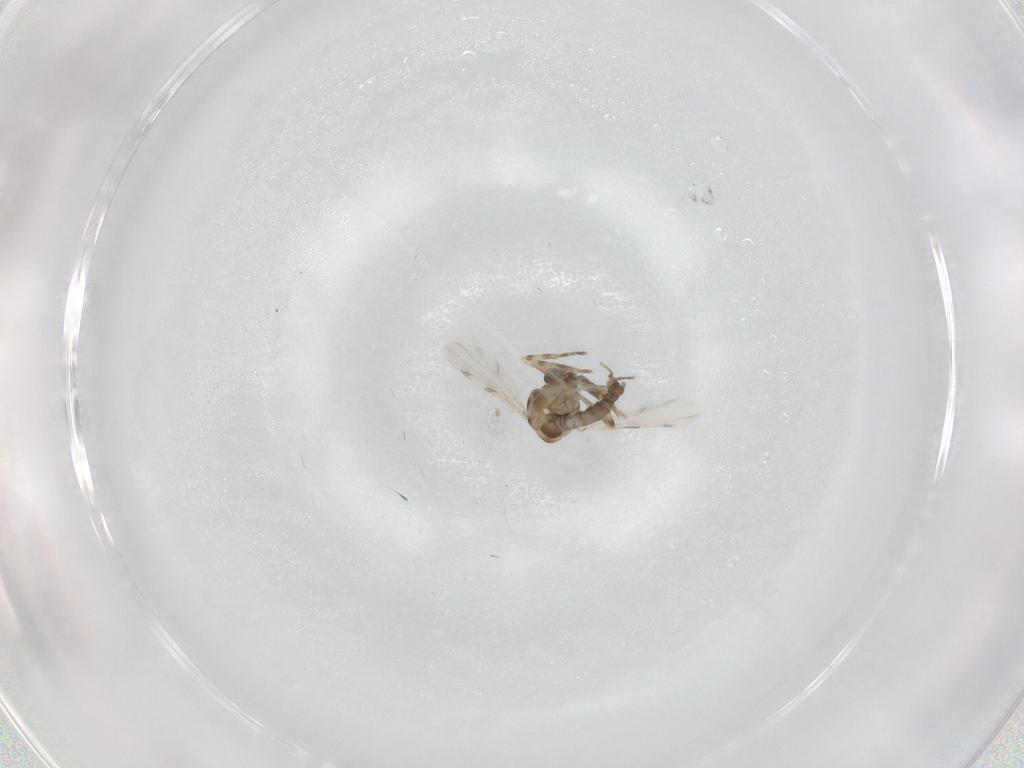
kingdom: Animalia
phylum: Arthropoda
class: Insecta
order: Diptera
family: Ceratopogonidae
